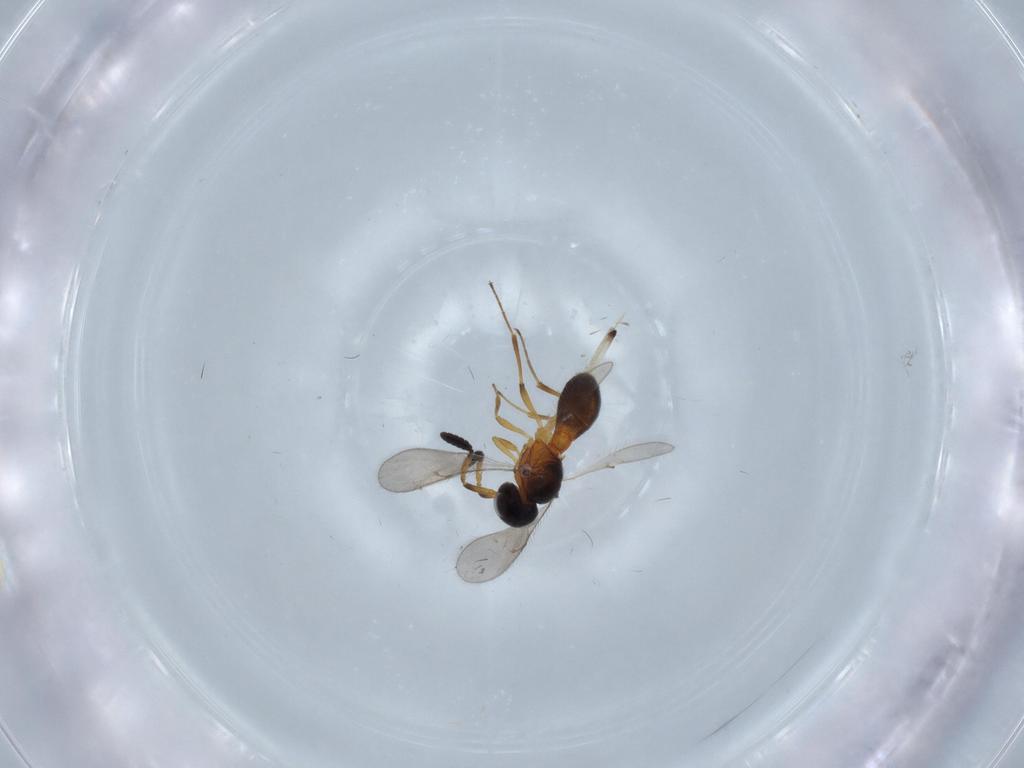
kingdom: Animalia
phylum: Arthropoda
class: Insecta
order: Hymenoptera
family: Scelionidae
